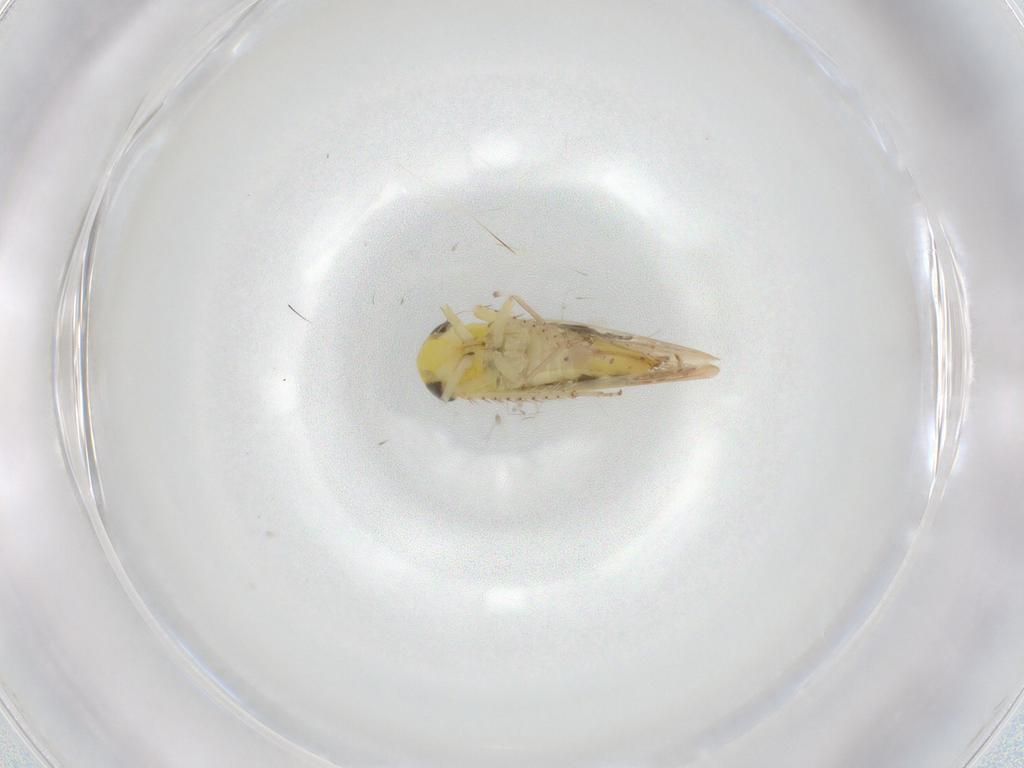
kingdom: Animalia
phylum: Arthropoda
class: Insecta
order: Hemiptera
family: Cicadellidae
